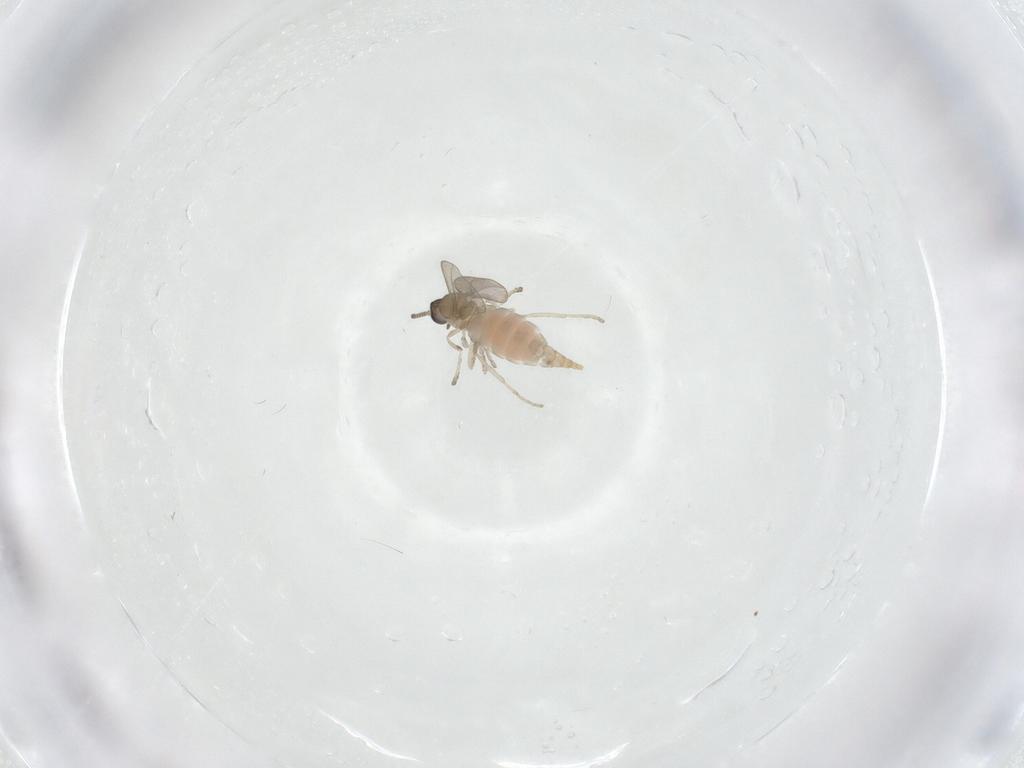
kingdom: Animalia
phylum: Arthropoda
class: Insecta
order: Diptera
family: Cecidomyiidae
